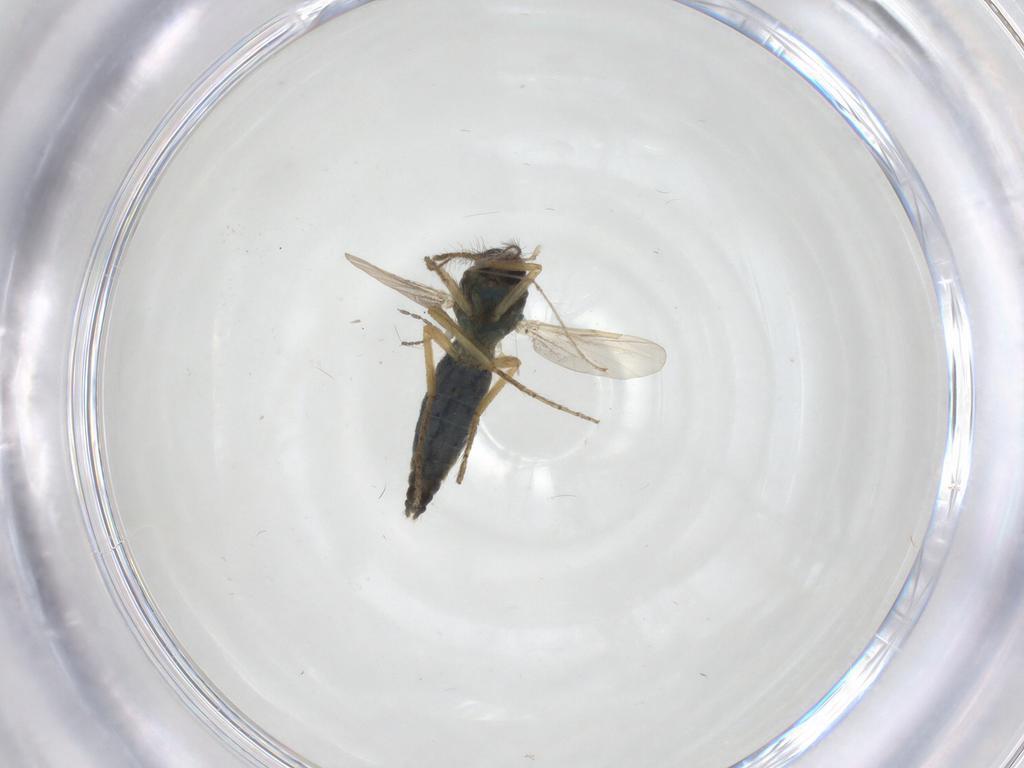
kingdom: Animalia
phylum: Arthropoda
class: Insecta
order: Diptera
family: Ceratopogonidae
